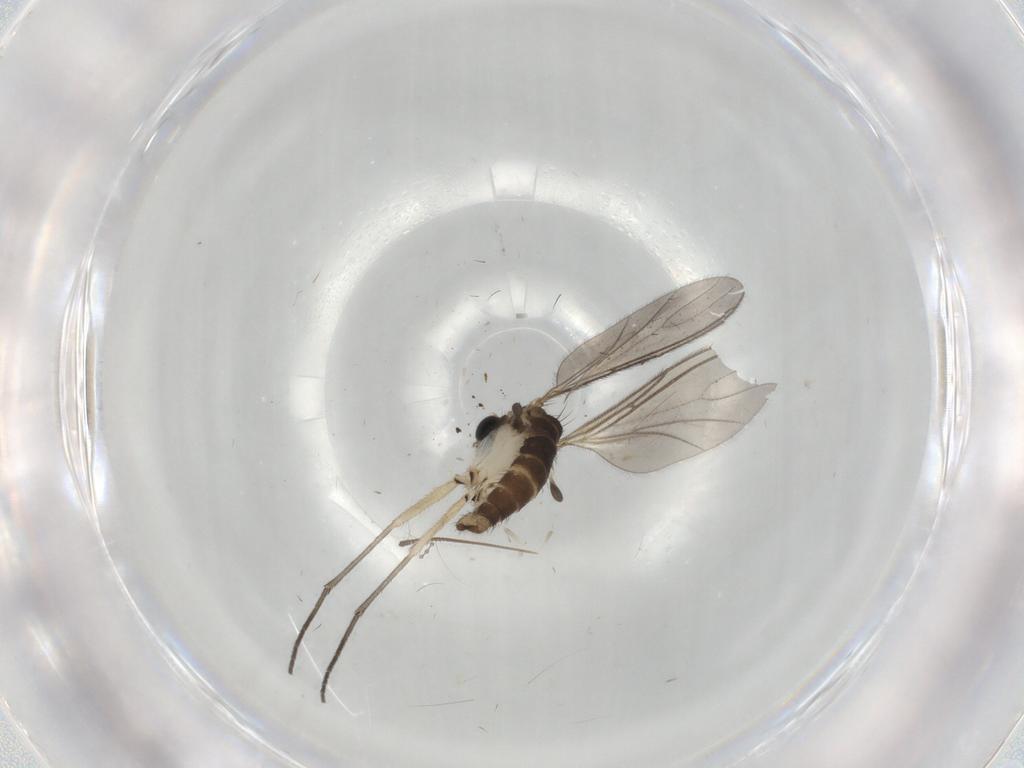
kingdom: Animalia
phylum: Arthropoda
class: Insecta
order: Diptera
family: Sciaridae
